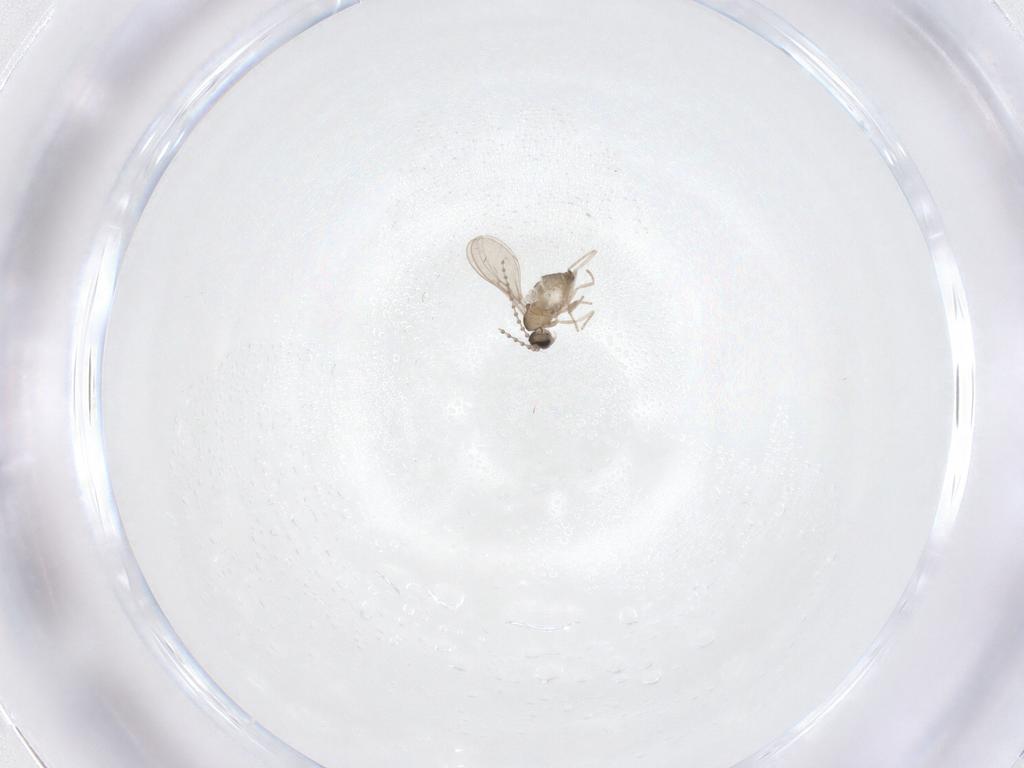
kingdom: Animalia
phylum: Arthropoda
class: Insecta
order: Diptera
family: Cecidomyiidae
